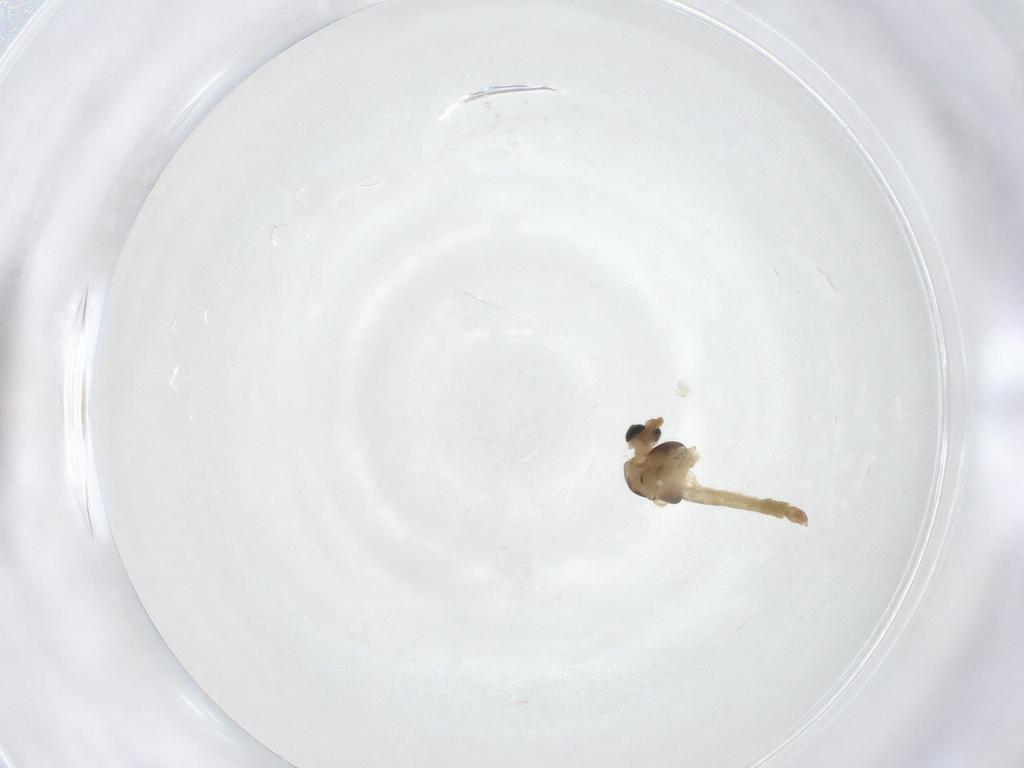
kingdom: Animalia
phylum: Arthropoda
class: Insecta
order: Diptera
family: Chironomidae
